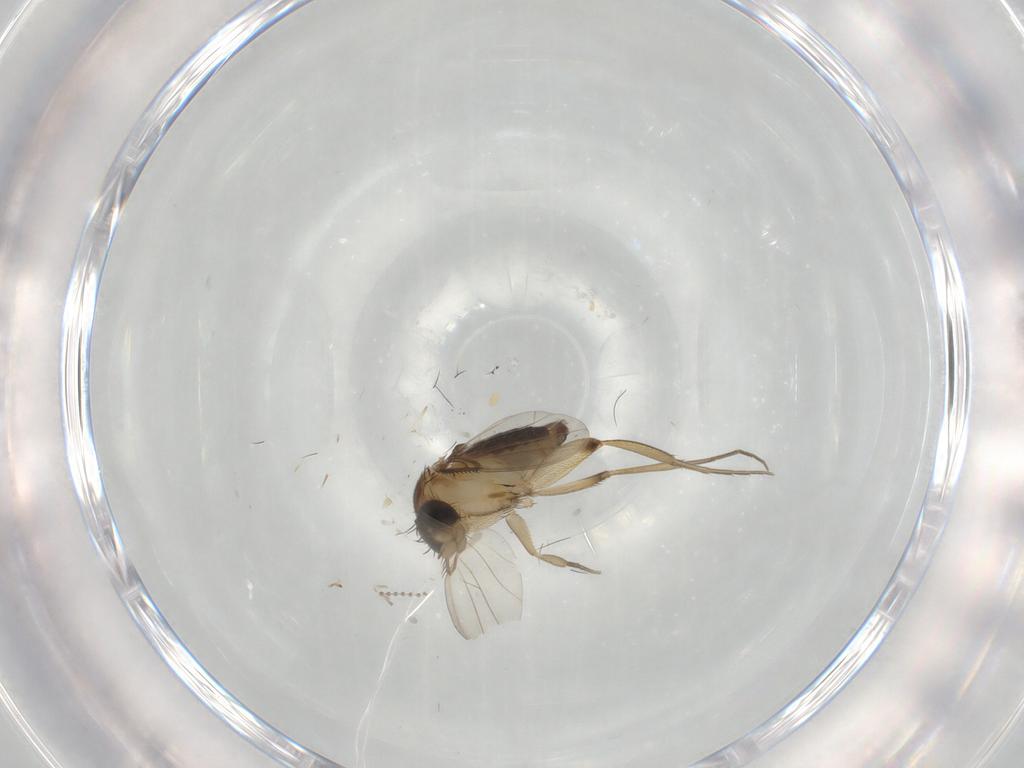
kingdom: Animalia
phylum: Arthropoda
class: Insecta
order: Diptera
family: Phoridae
